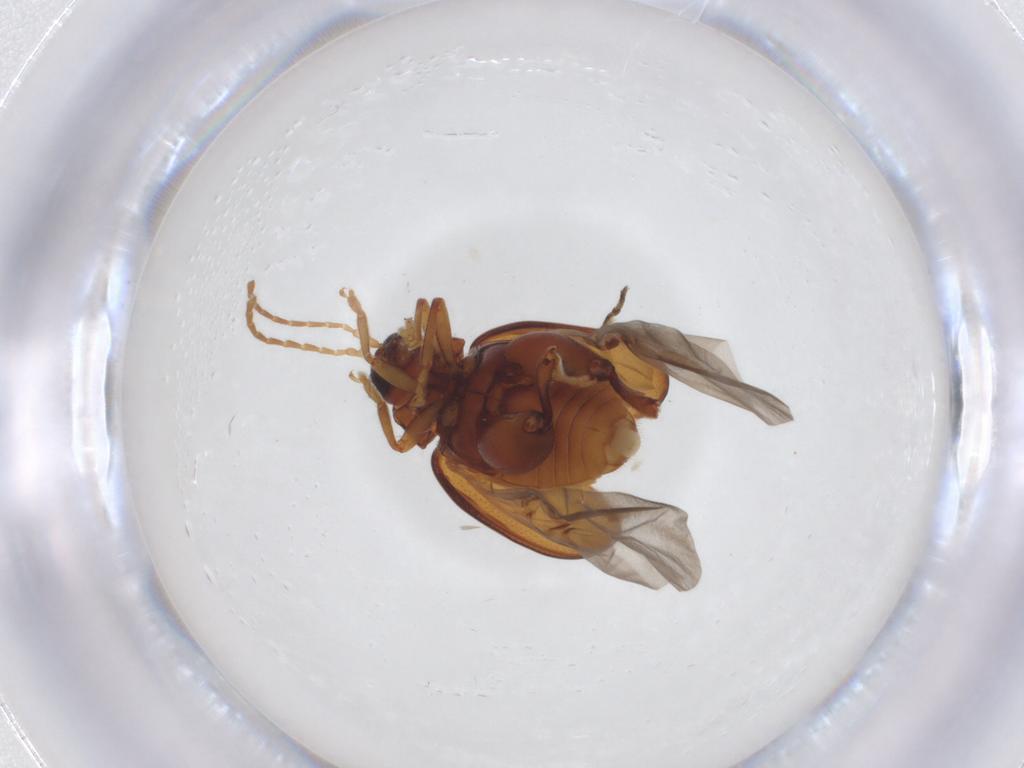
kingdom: Animalia
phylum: Arthropoda
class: Insecta
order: Coleoptera
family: Chrysomelidae
